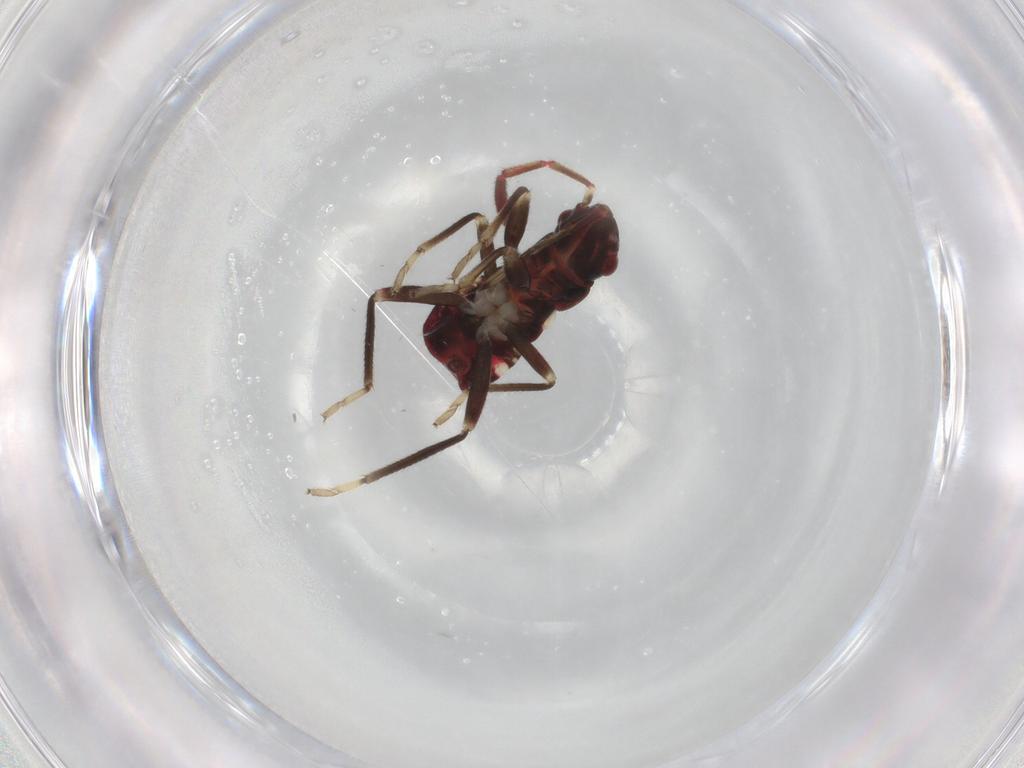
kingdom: Animalia
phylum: Arthropoda
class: Insecta
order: Hemiptera
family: Rhyparochromidae
